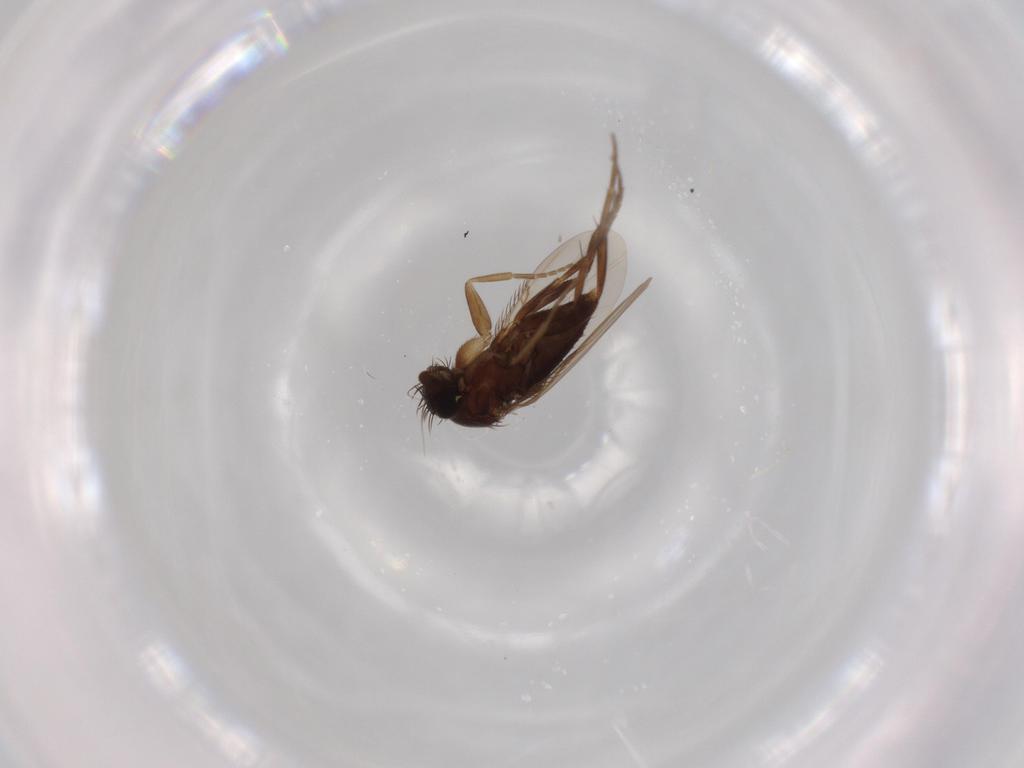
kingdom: Animalia
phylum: Arthropoda
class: Insecta
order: Diptera
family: Phoridae
